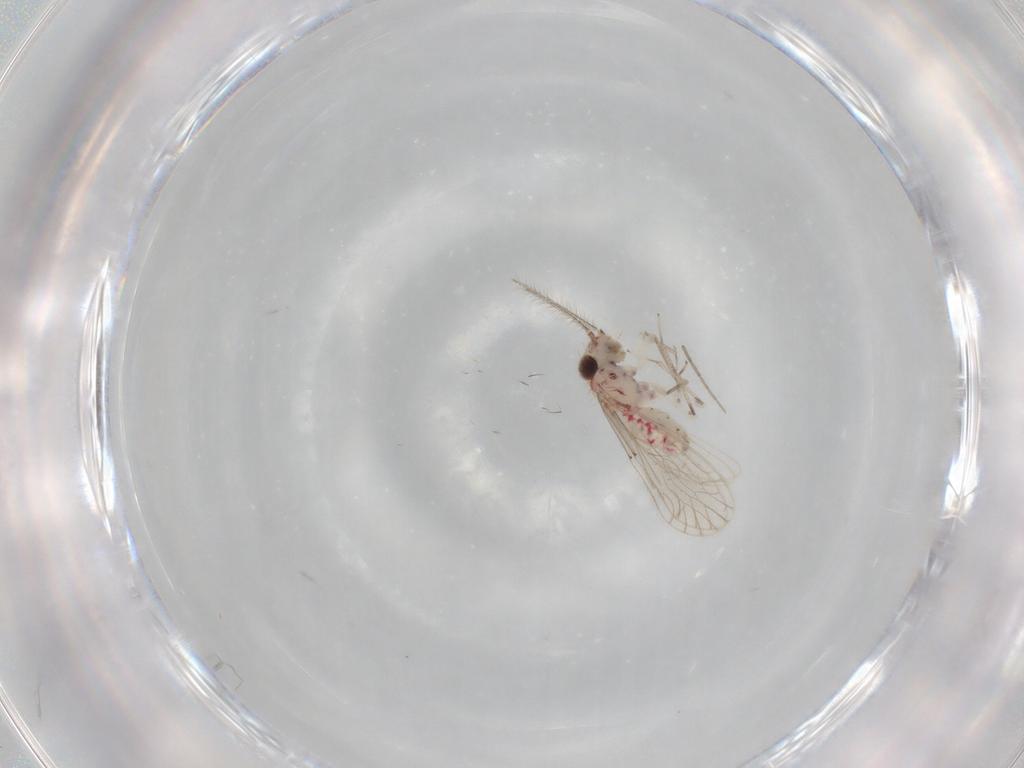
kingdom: Animalia
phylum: Arthropoda
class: Insecta
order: Psocodea
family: Caeciliusidae
